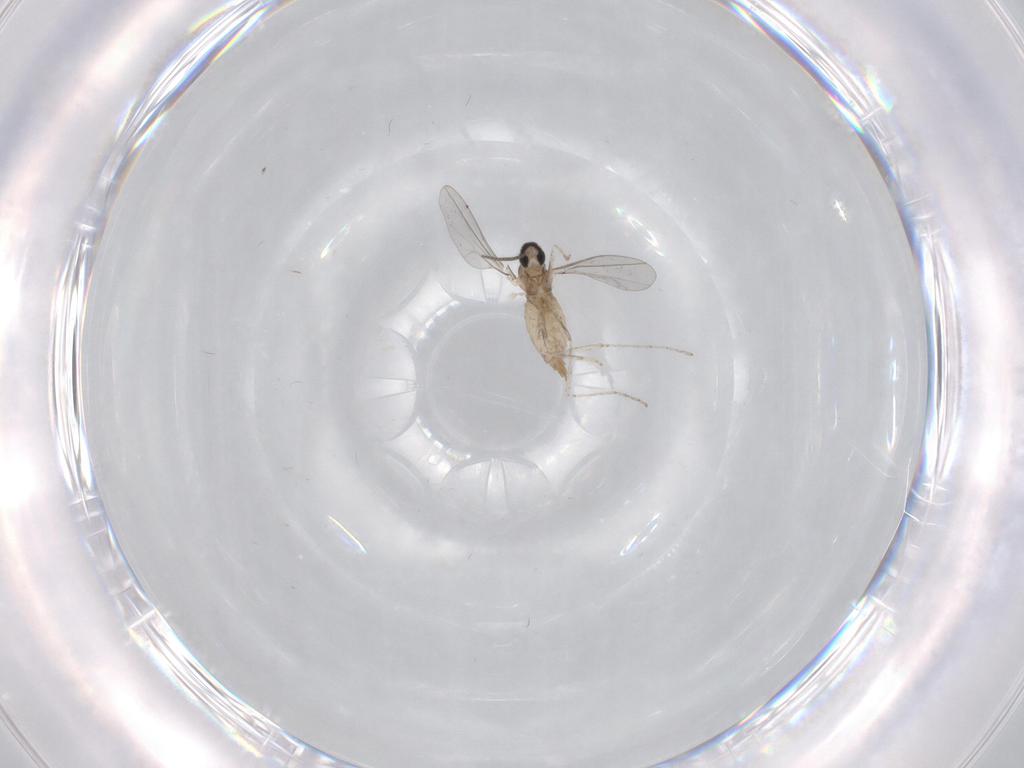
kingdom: Animalia
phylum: Arthropoda
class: Insecta
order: Diptera
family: Cecidomyiidae
